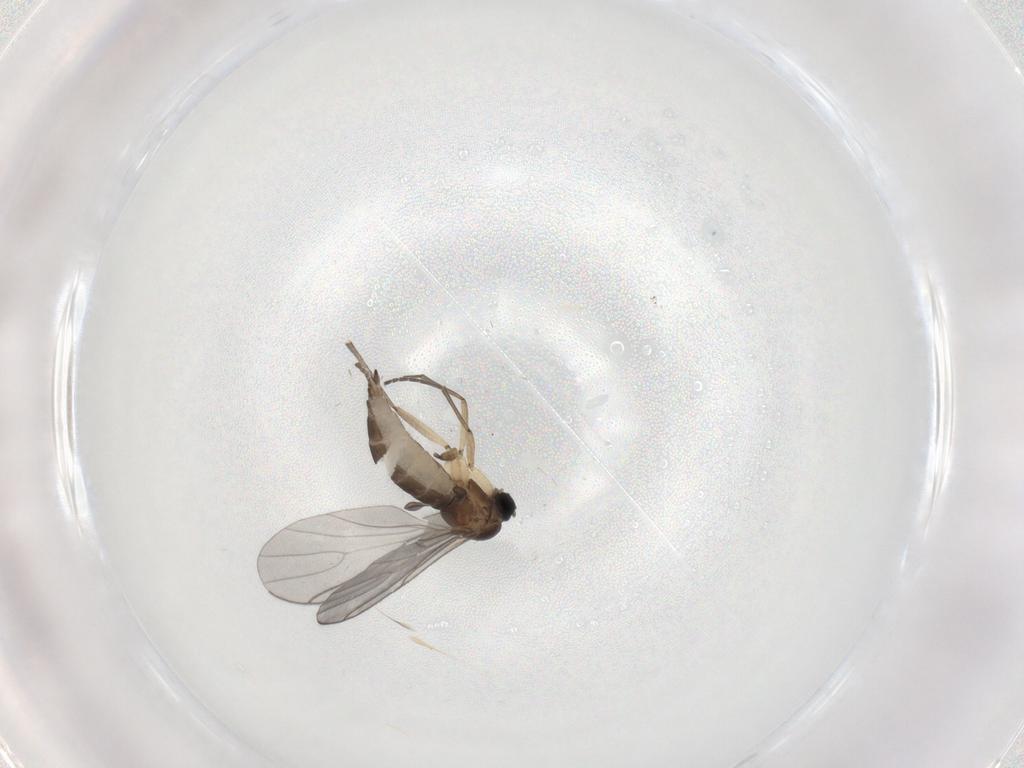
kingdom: Animalia
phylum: Arthropoda
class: Insecta
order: Diptera
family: Sciaridae
